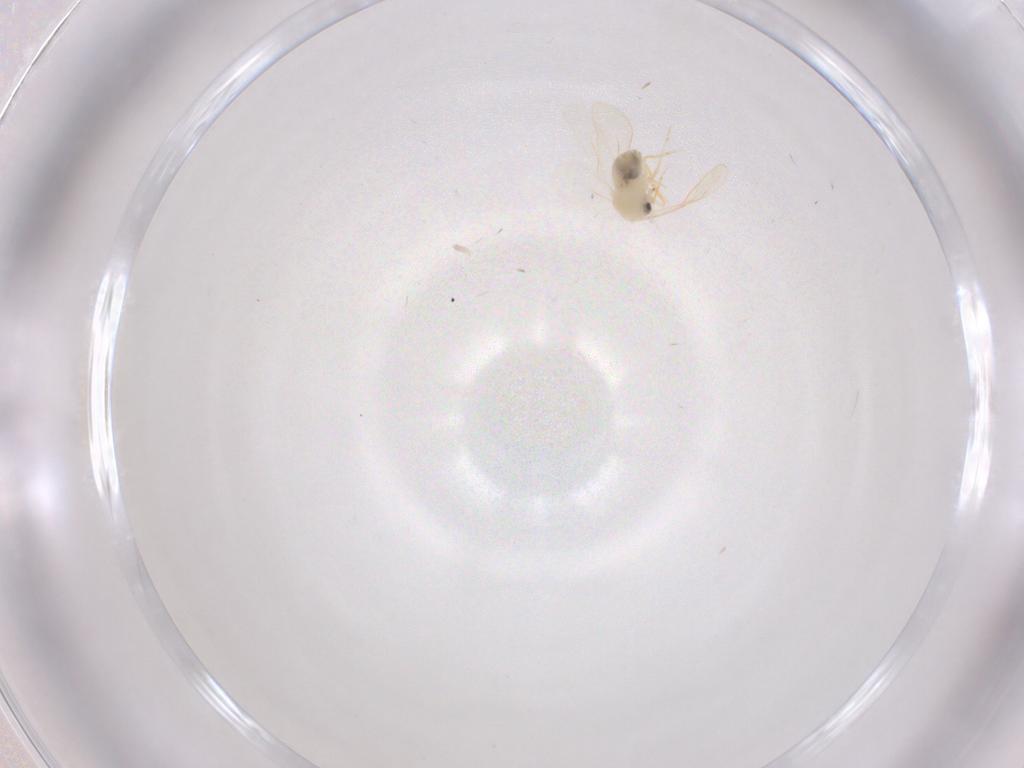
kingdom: Animalia
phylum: Arthropoda
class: Insecta
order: Hemiptera
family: Aleyrodidae
